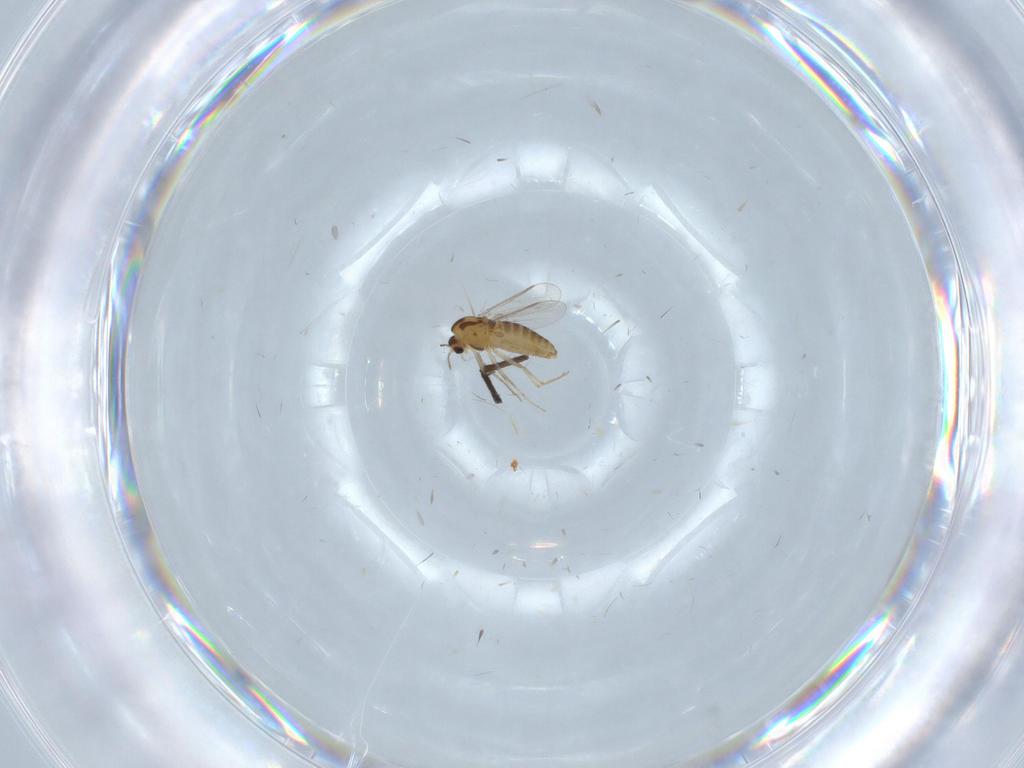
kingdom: Animalia
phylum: Arthropoda
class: Insecta
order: Diptera
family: Chironomidae
